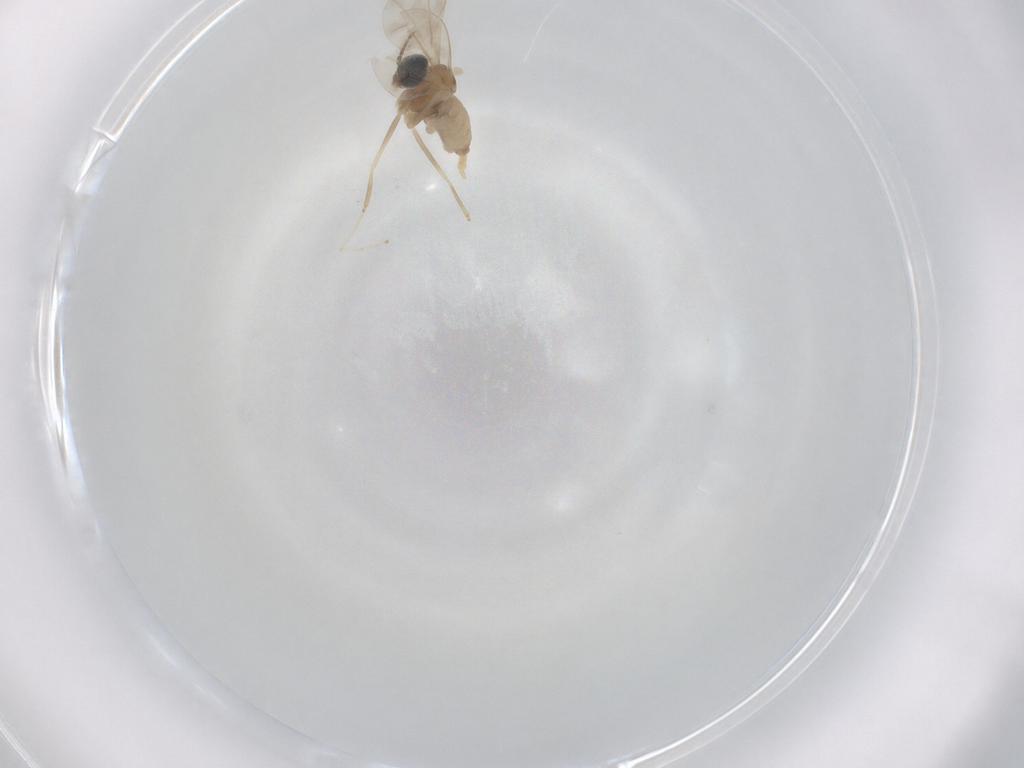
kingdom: Animalia
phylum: Arthropoda
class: Insecta
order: Diptera
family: Cecidomyiidae
